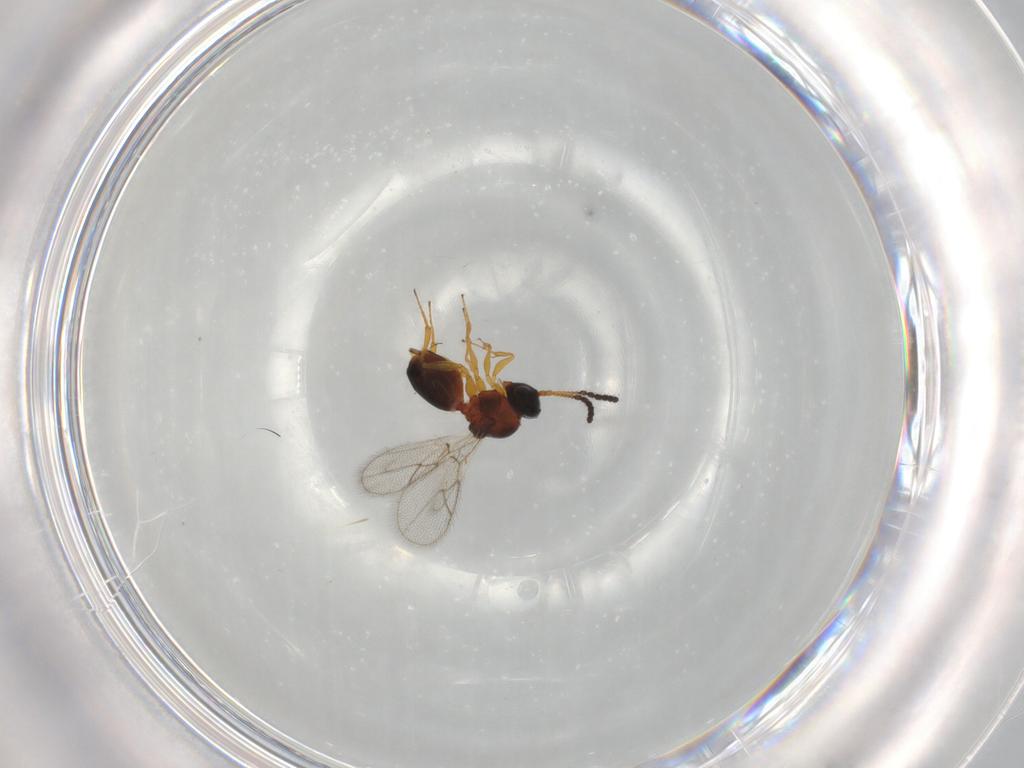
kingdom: Animalia
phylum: Arthropoda
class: Insecta
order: Hymenoptera
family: Figitidae
